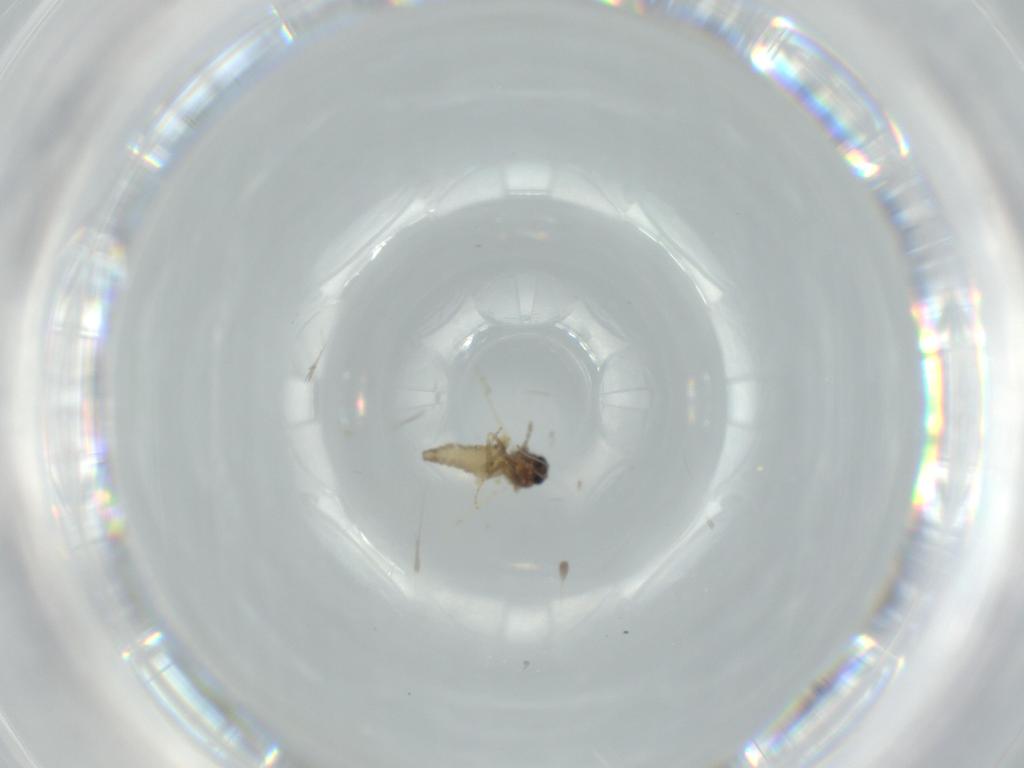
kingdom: Animalia
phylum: Arthropoda
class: Insecta
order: Diptera
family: Ceratopogonidae
